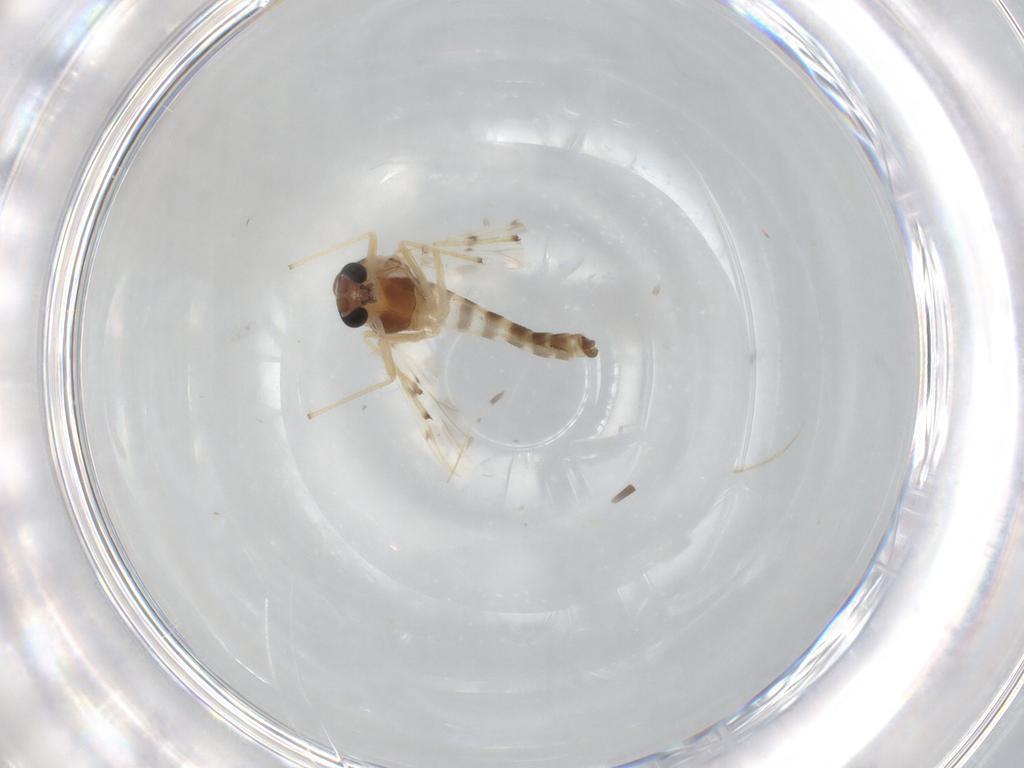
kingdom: Animalia
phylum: Arthropoda
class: Insecta
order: Diptera
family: Chironomidae
